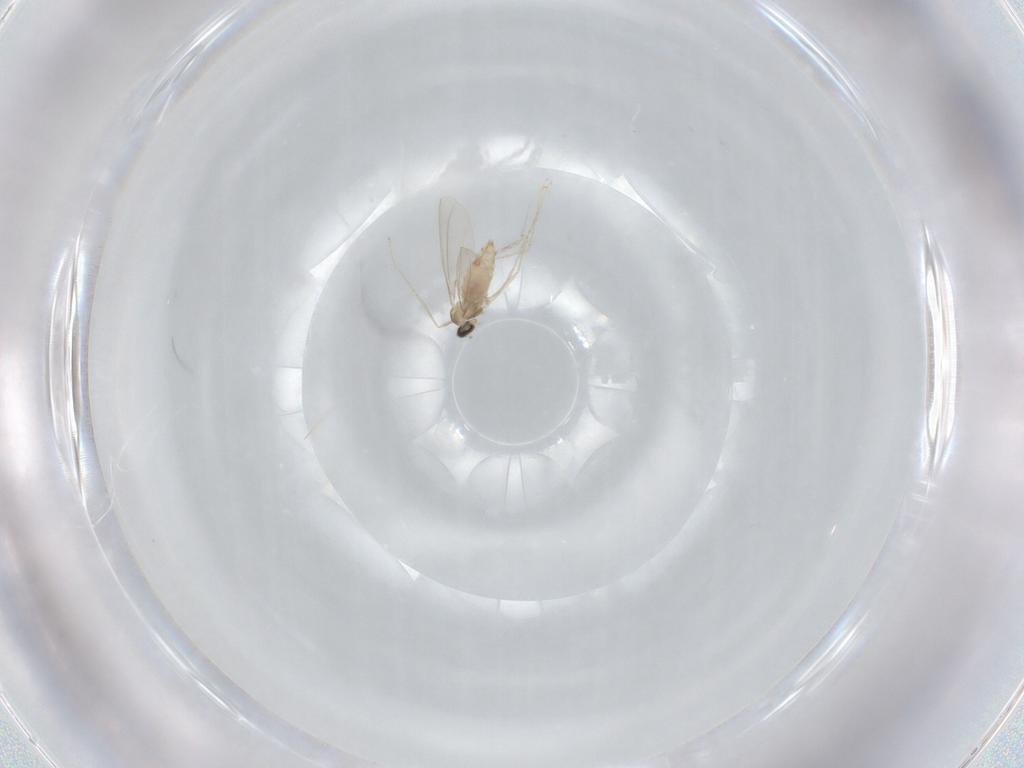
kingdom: Animalia
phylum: Arthropoda
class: Insecta
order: Diptera
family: Cecidomyiidae
